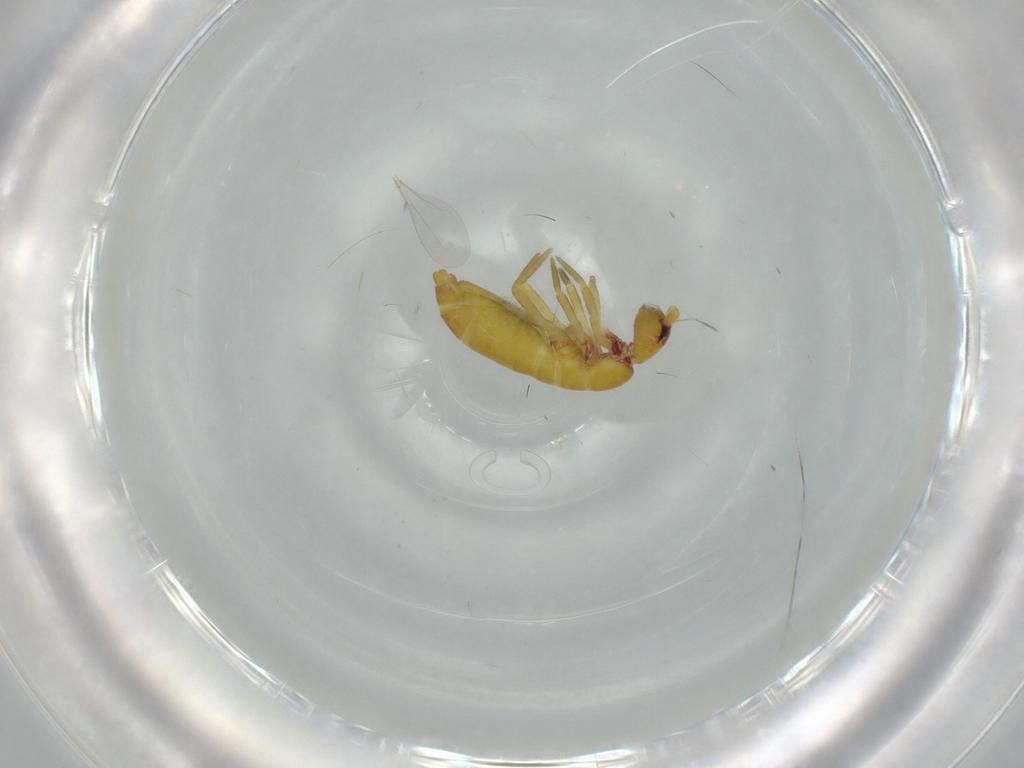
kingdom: Animalia
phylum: Arthropoda
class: Collembola
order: Entomobryomorpha
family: Tomoceridae
